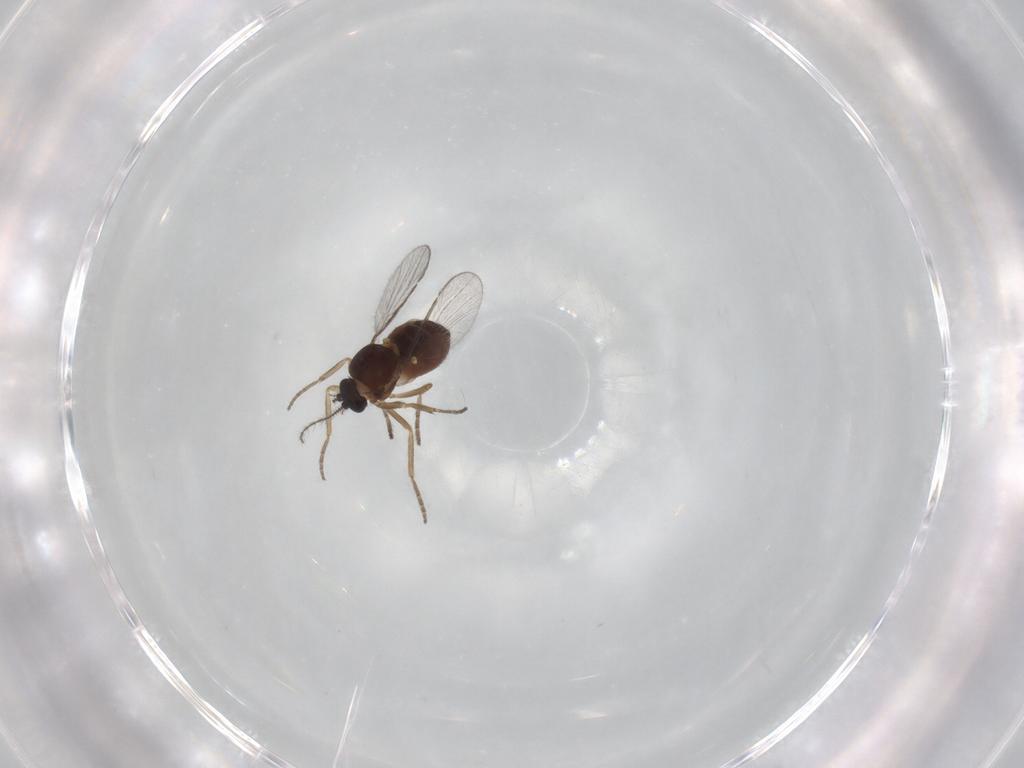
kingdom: Animalia
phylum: Arthropoda
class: Insecta
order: Diptera
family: Ceratopogonidae
